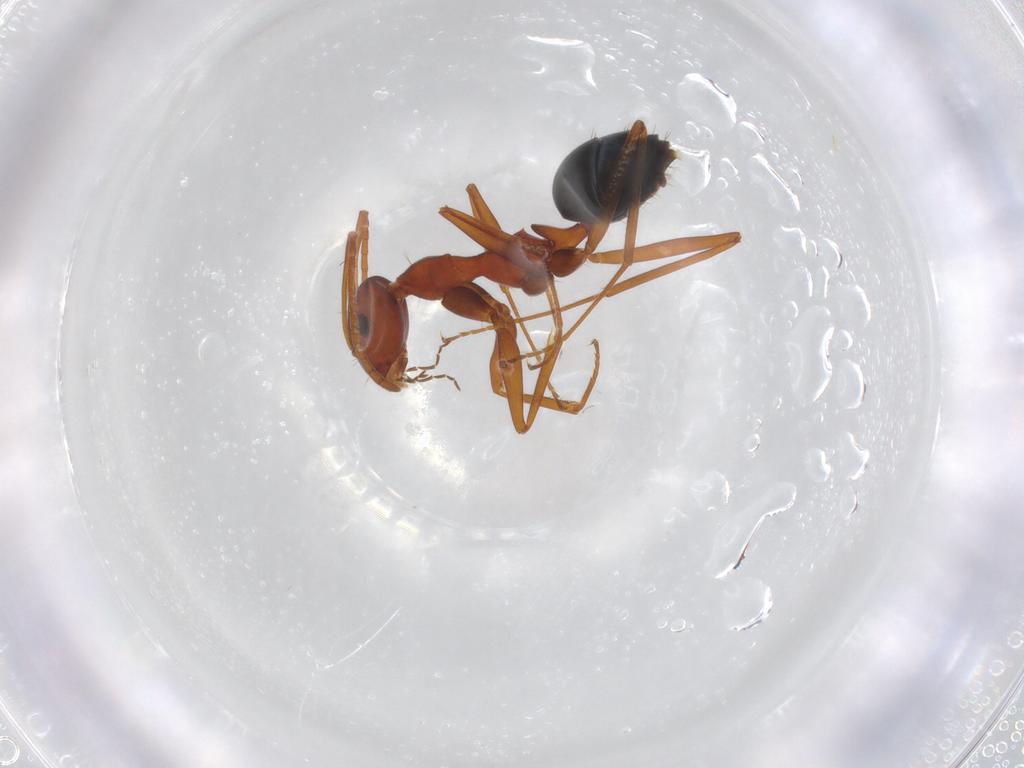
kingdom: Animalia
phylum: Arthropoda
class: Insecta
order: Hymenoptera
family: Formicidae
